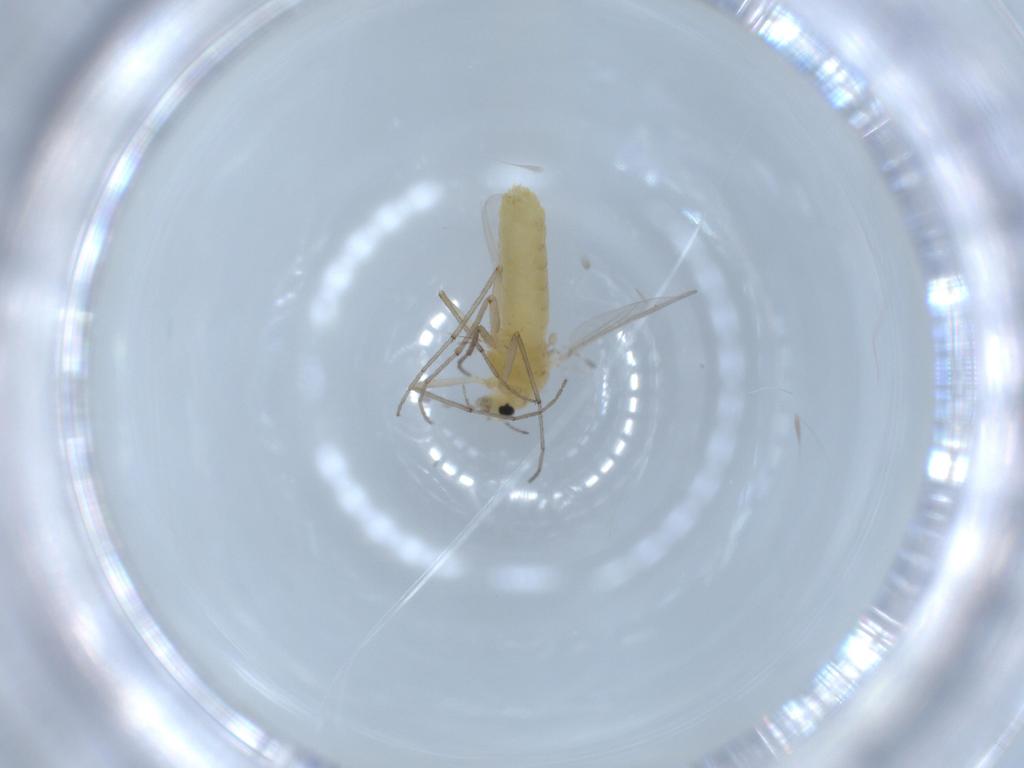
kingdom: Animalia
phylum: Arthropoda
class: Insecta
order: Diptera
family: Chironomidae
